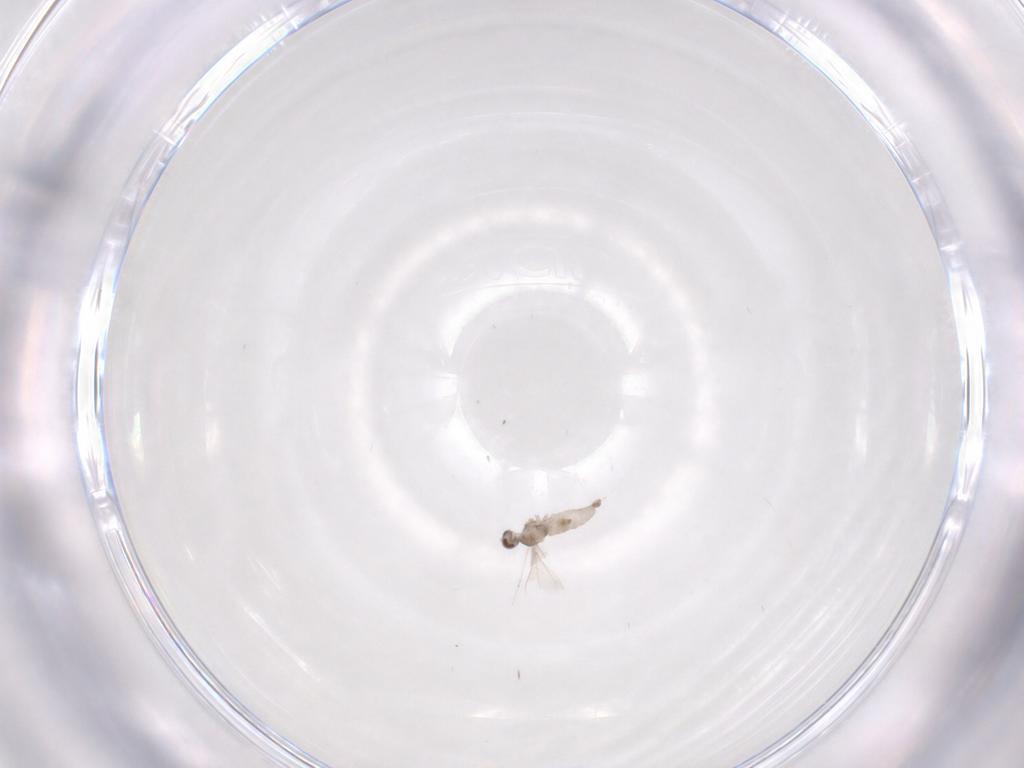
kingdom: Animalia
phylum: Arthropoda
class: Insecta
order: Diptera
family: Cecidomyiidae
